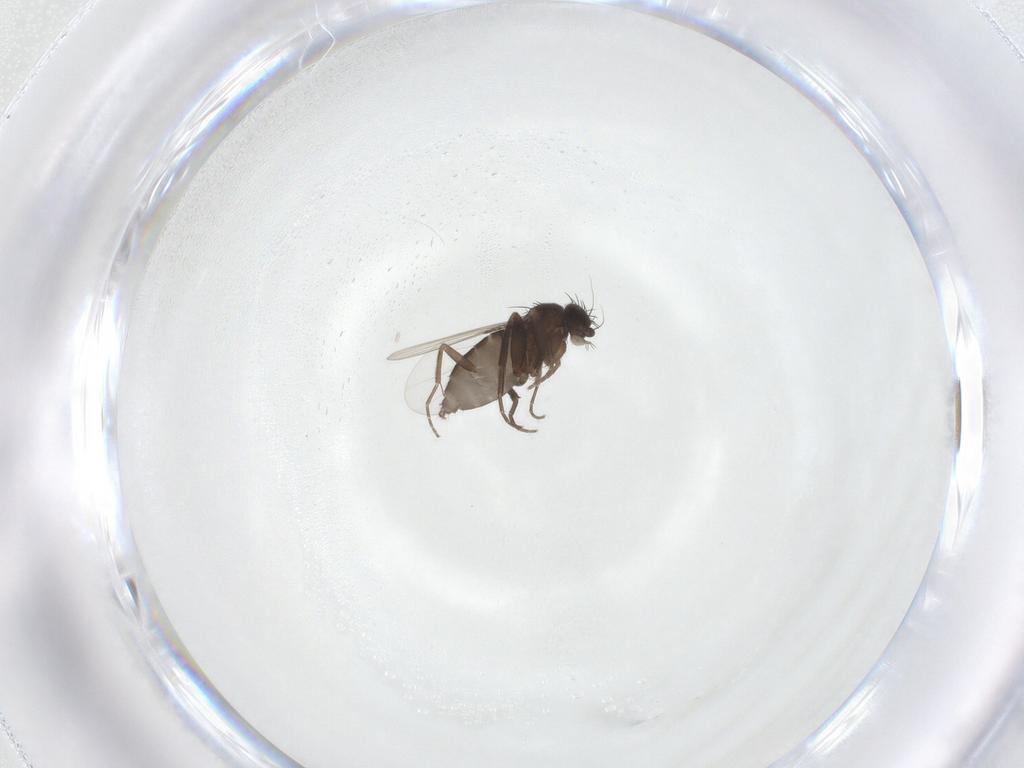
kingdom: Animalia
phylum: Arthropoda
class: Insecta
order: Diptera
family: Phoridae
